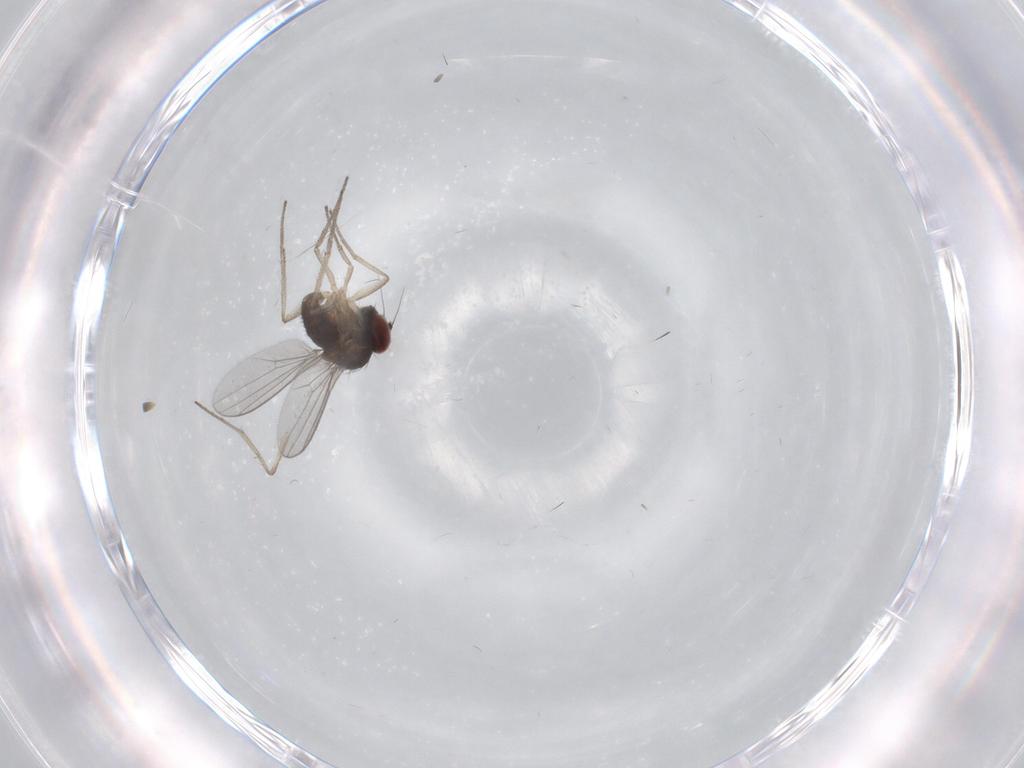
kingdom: Animalia
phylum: Arthropoda
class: Insecta
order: Diptera
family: Dolichopodidae
